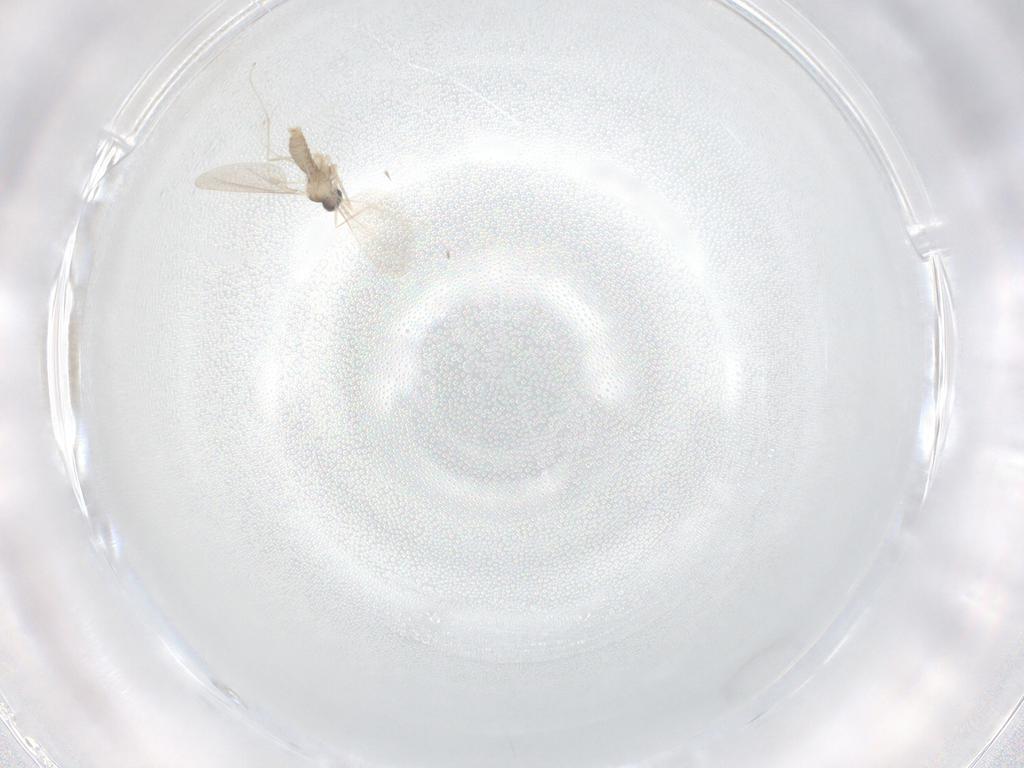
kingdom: Animalia
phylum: Arthropoda
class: Insecta
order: Diptera
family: Cecidomyiidae
